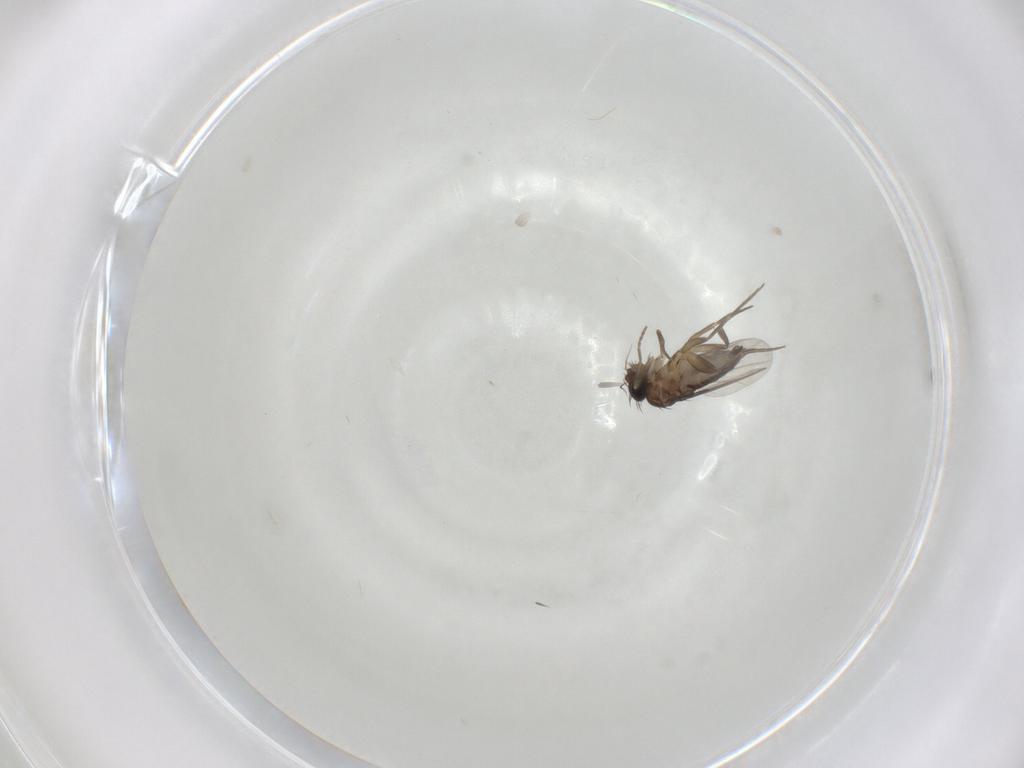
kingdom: Animalia
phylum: Arthropoda
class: Insecta
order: Diptera
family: Phoridae
